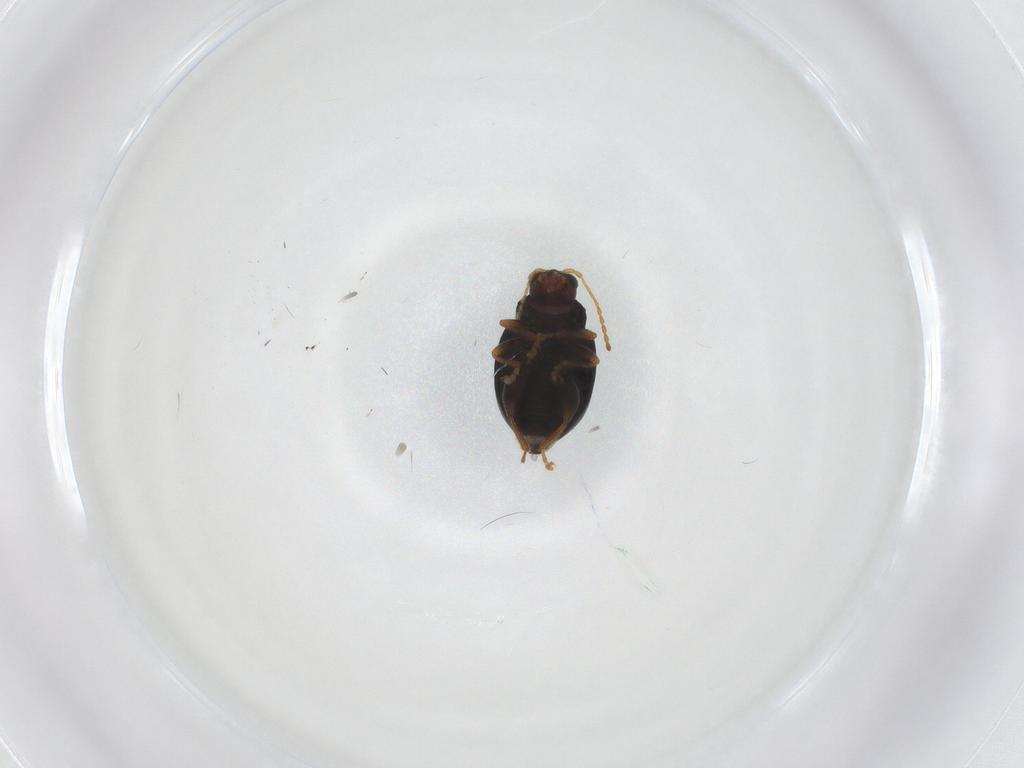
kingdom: Animalia
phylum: Arthropoda
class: Insecta
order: Coleoptera
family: Chrysomelidae
